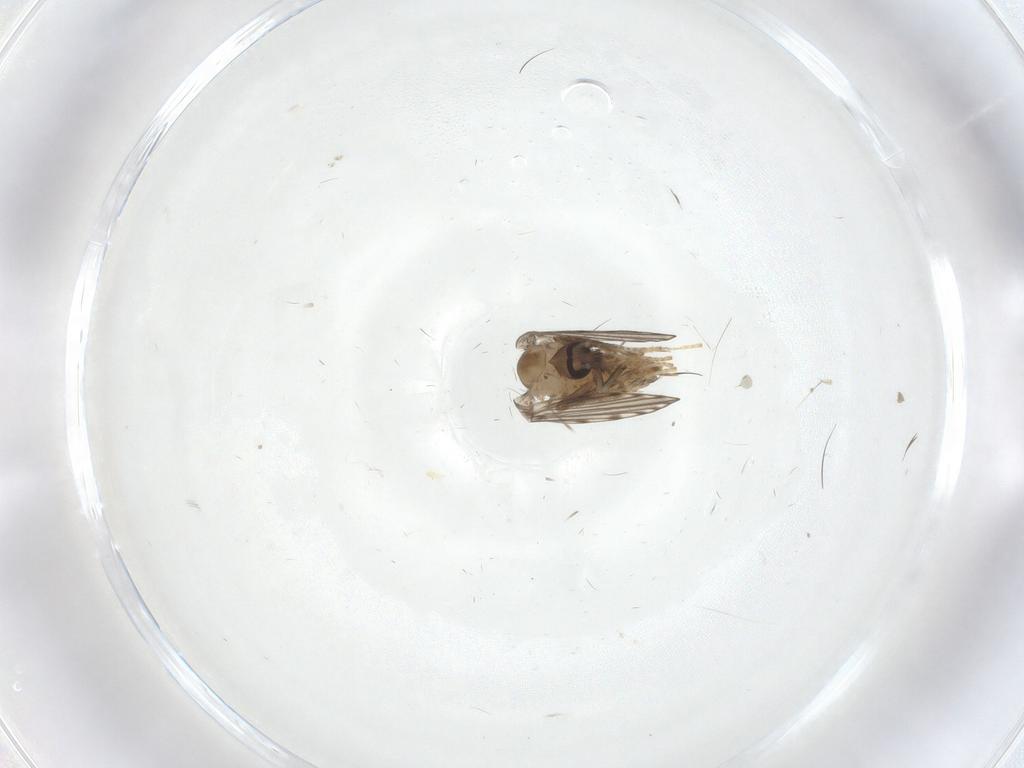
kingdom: Animalia
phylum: Arthropoda
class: Insecta
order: Diptera
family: Psychodidae
